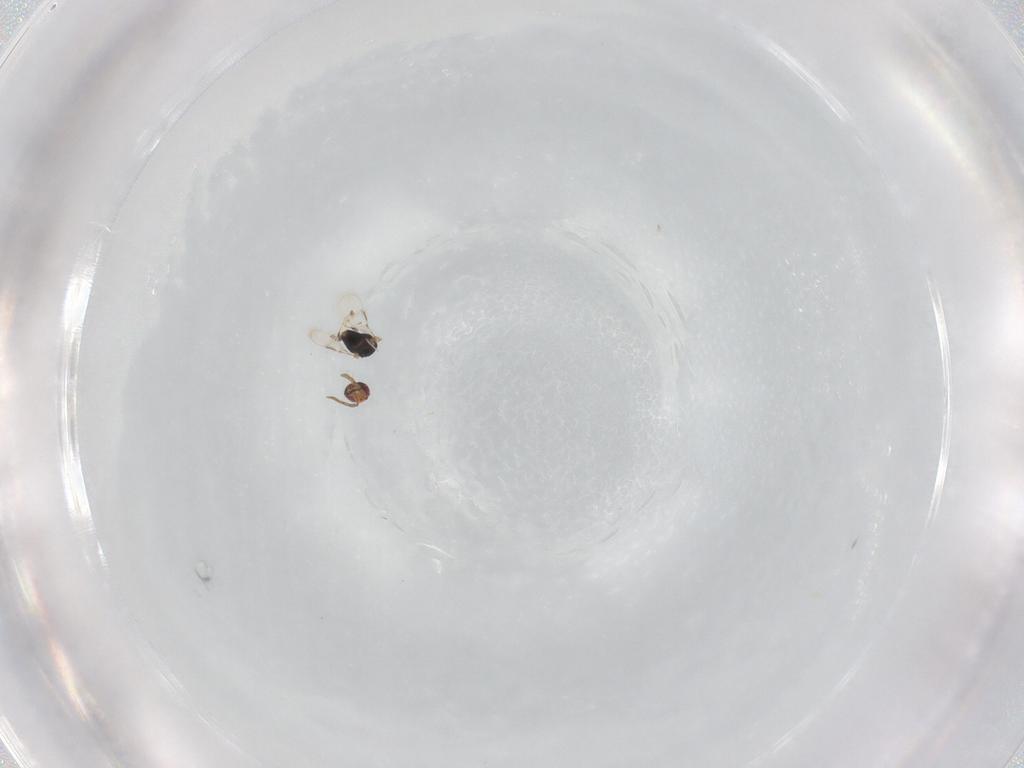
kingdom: Animalia
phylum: Arthropoda
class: Insecta
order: Hymenoptera
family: Azotidae
